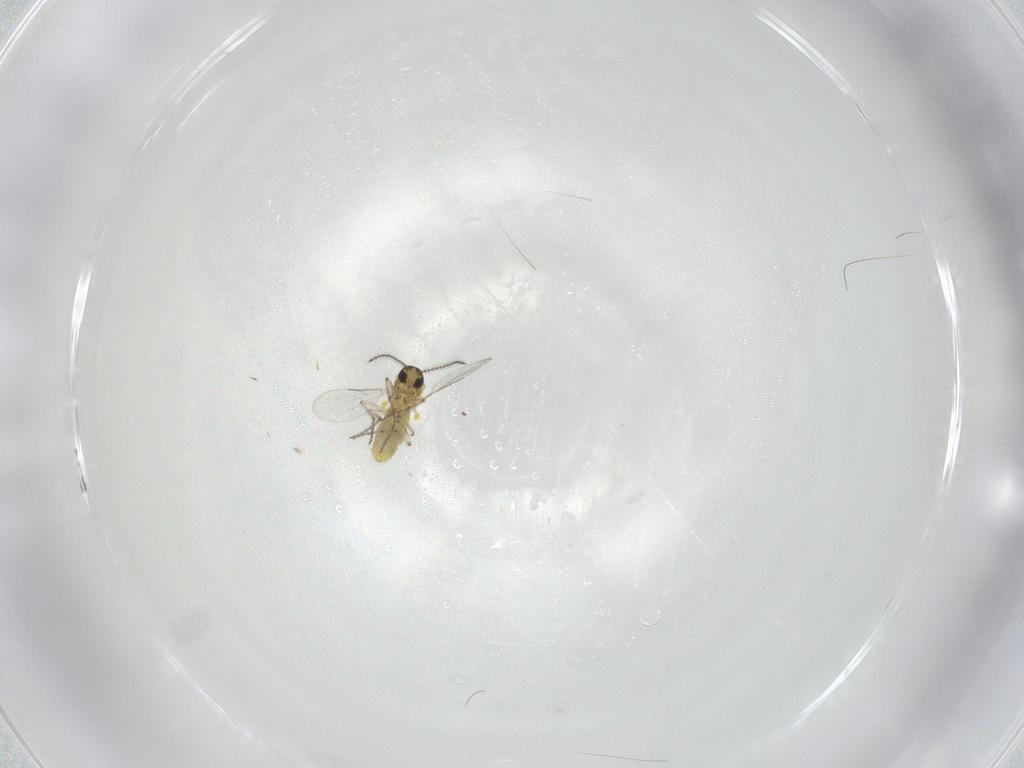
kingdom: Animalia
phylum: Arthropoda
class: Insecta
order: Diptera
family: Ceratopogonidae
